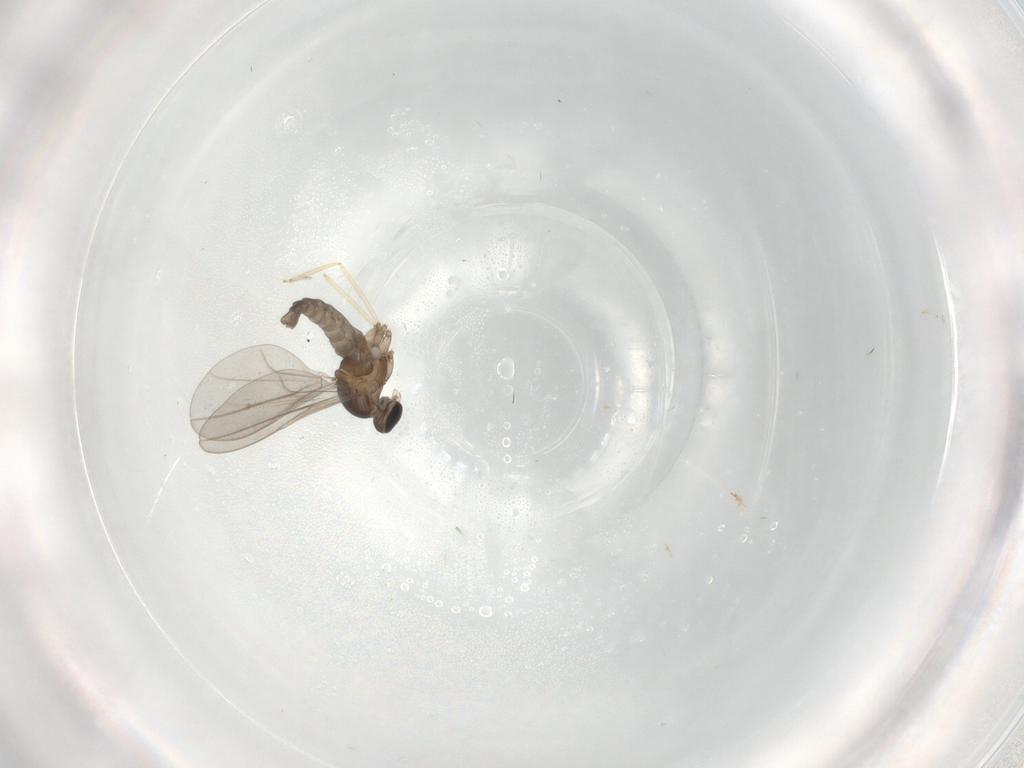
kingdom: Animalia
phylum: Arthropoda
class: Insecta
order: Diptera
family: Cecidomyiidae
